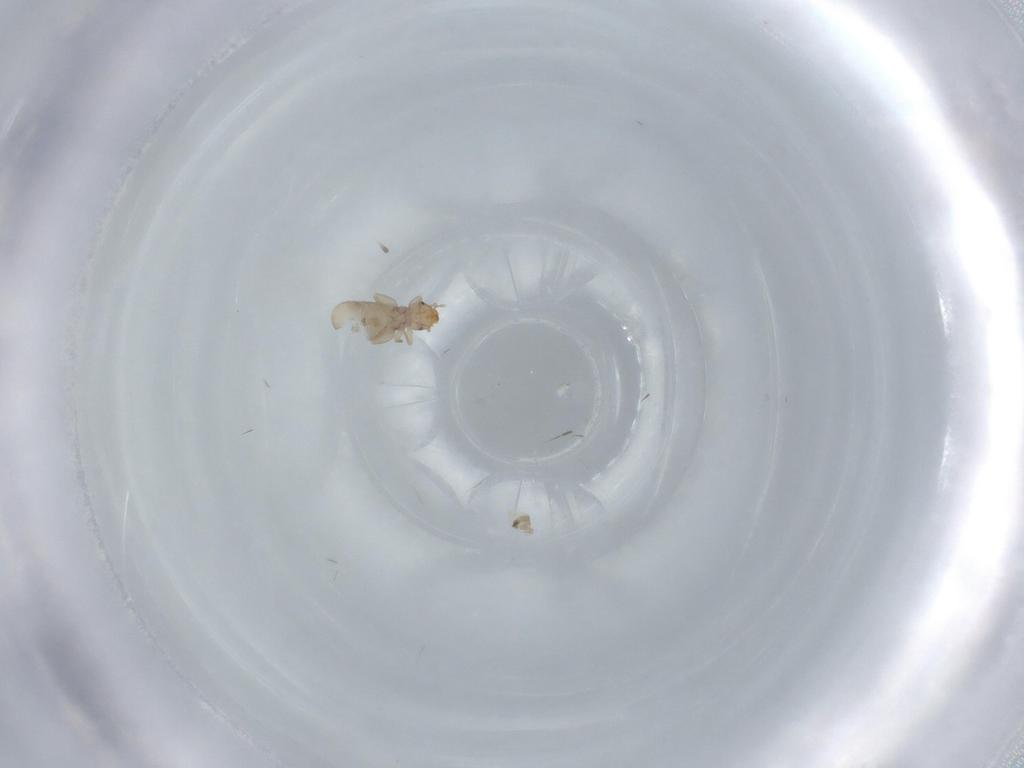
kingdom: Animalia
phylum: Arthropoda
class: Insecta
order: Psocodea
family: Liposcelididae
